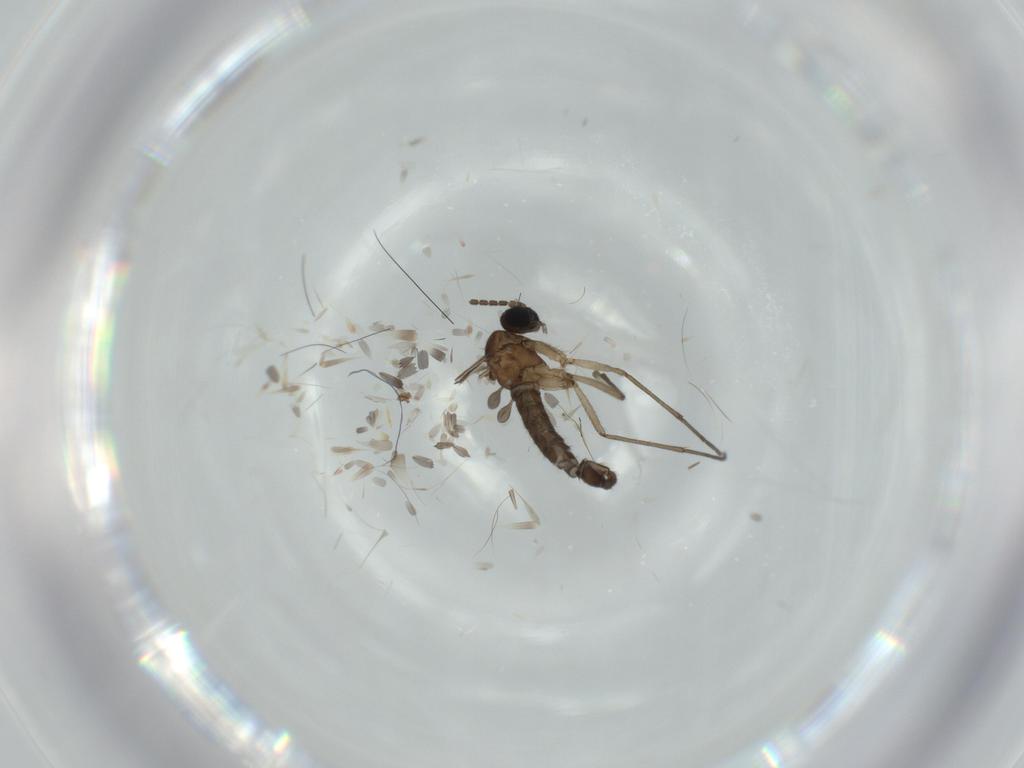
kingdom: Animalia
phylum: Arthropoda
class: Insecta
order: Diptera
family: Sciaridae
